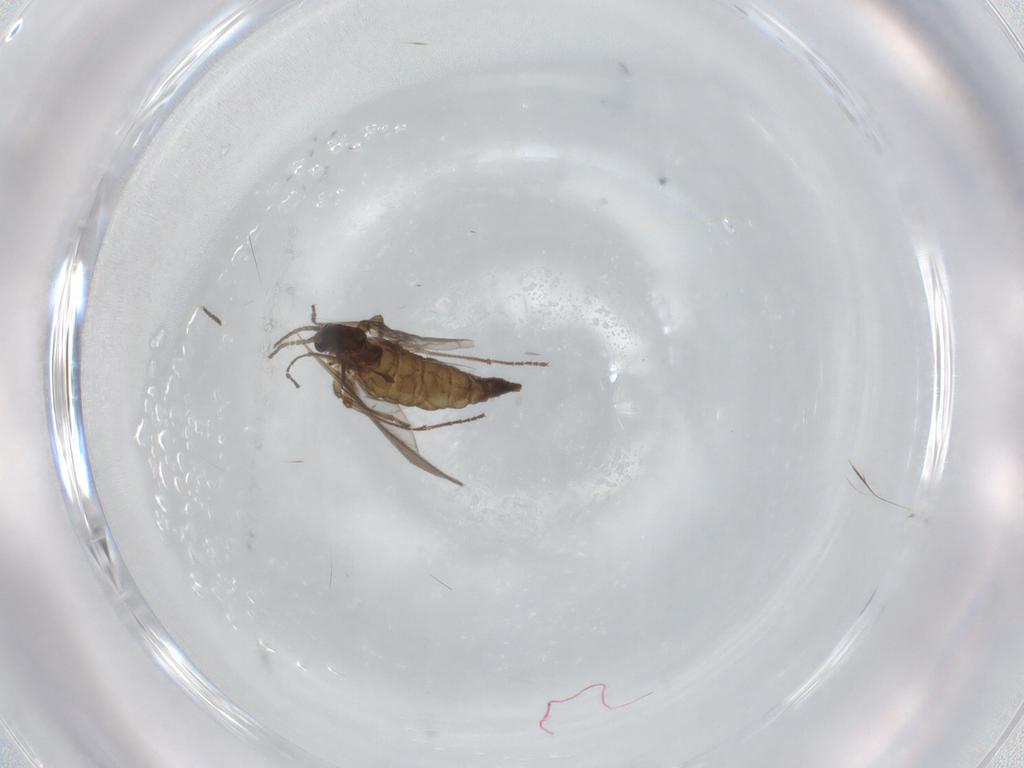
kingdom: Animalia
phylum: Arthropoda
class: Insecta
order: Diptera
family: Sciaridae
